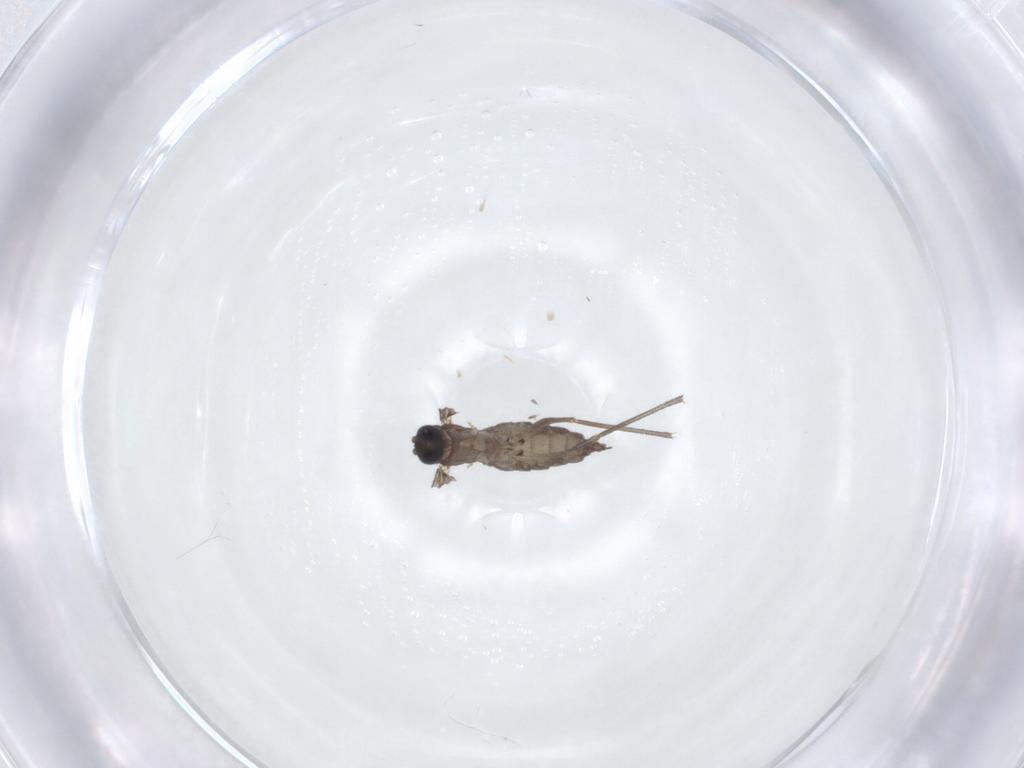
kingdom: Animalia
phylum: Arthropoda
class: Insecta
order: Diptera
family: Sciaridae
